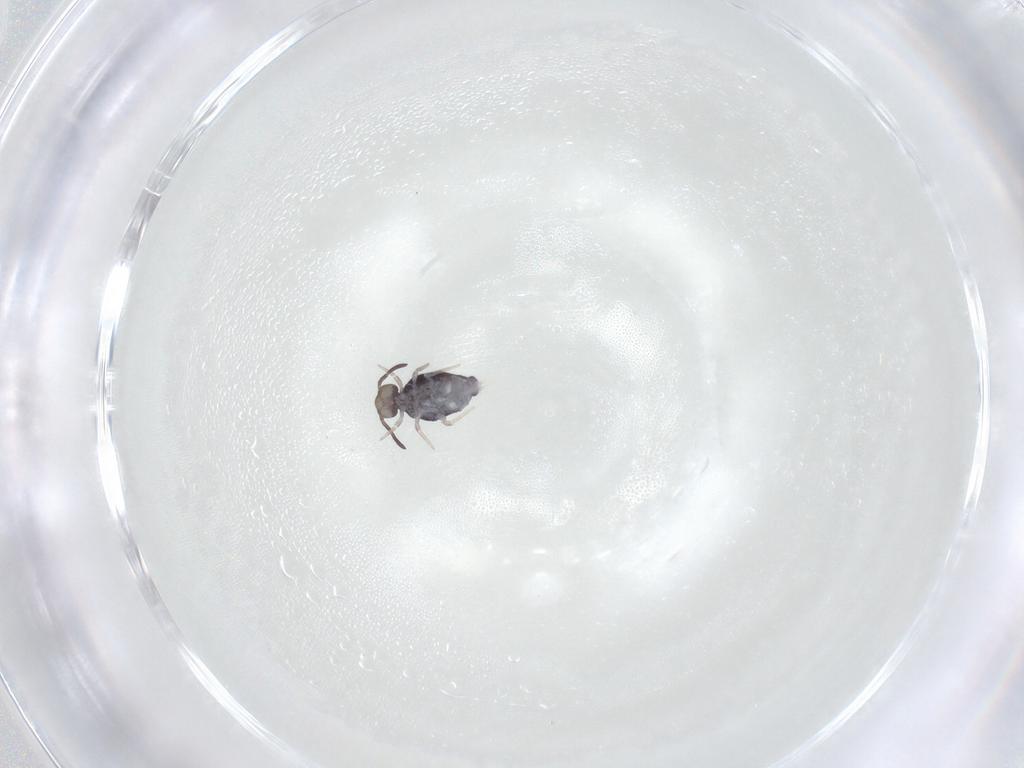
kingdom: Animalia
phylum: Arthropoda
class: Collembola
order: Symphypleona
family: Katiannidae
